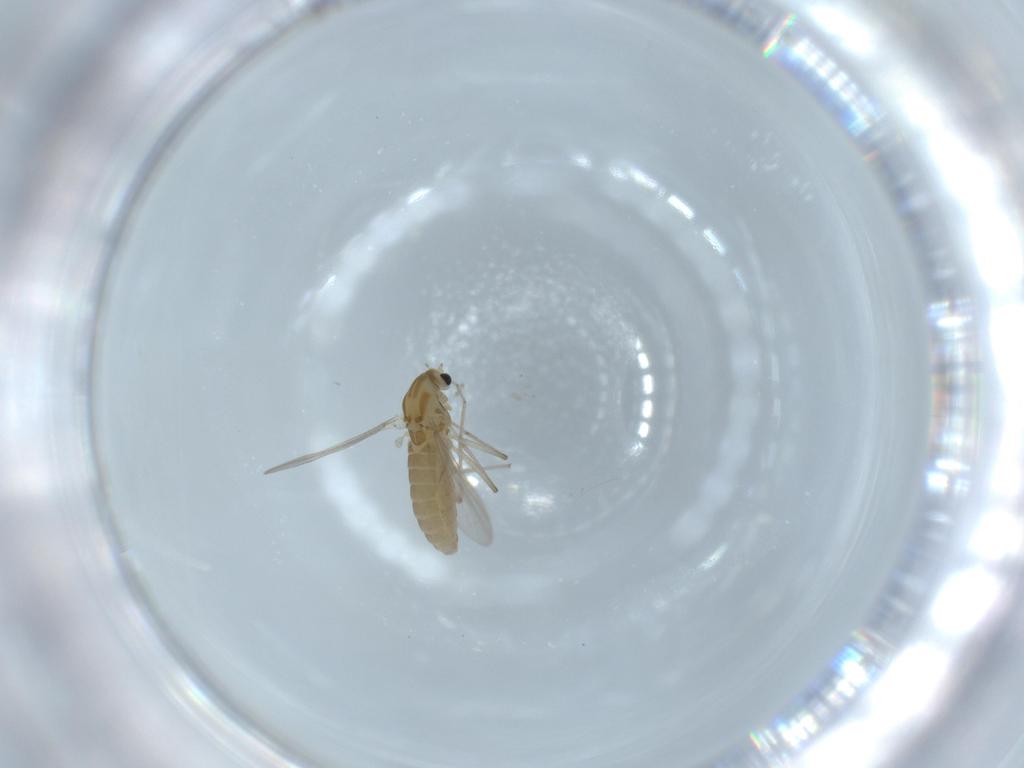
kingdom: Animalia
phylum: Arthropoda
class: Insecta
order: Diptera
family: Chironomidae
